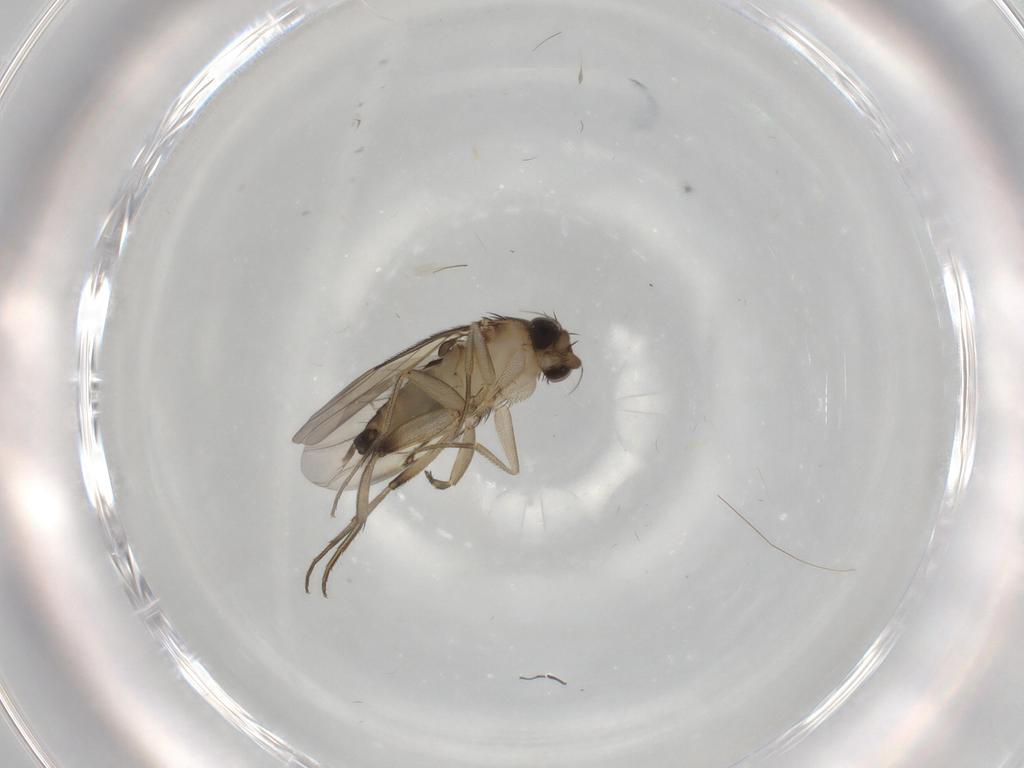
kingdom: Animalia
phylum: Arthropoda
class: Insecta
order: Diptera
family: Phoridae
